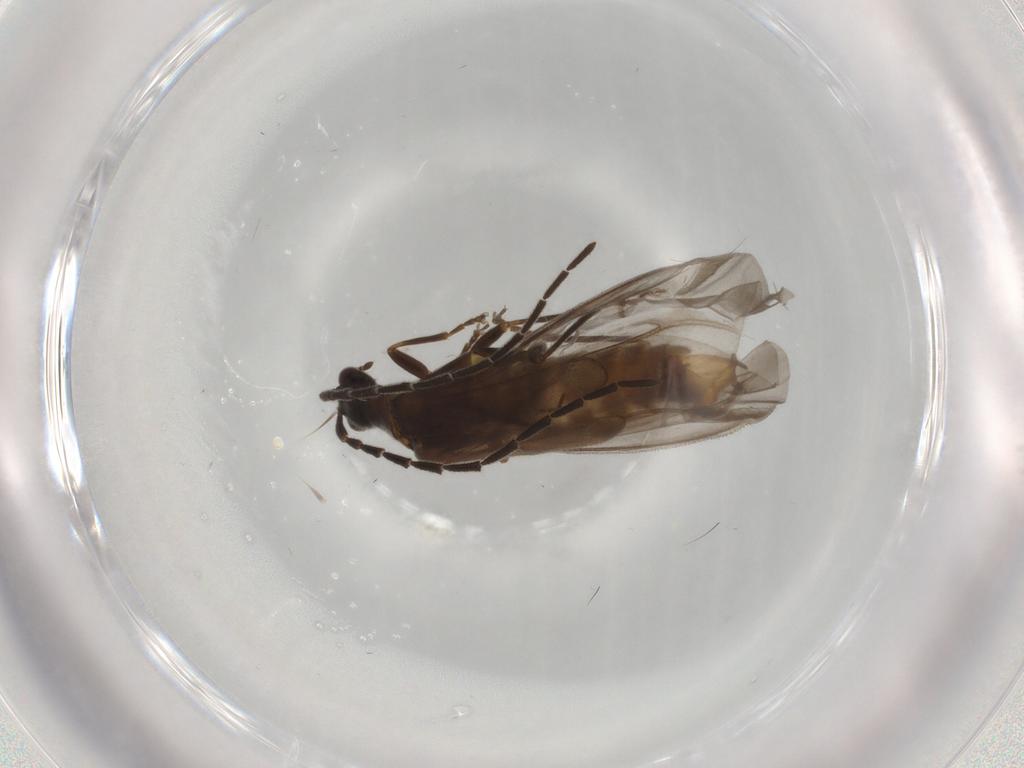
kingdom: Animalia
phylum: Arthropoda
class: Insecta
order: Coleoptera
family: Cantharidae
